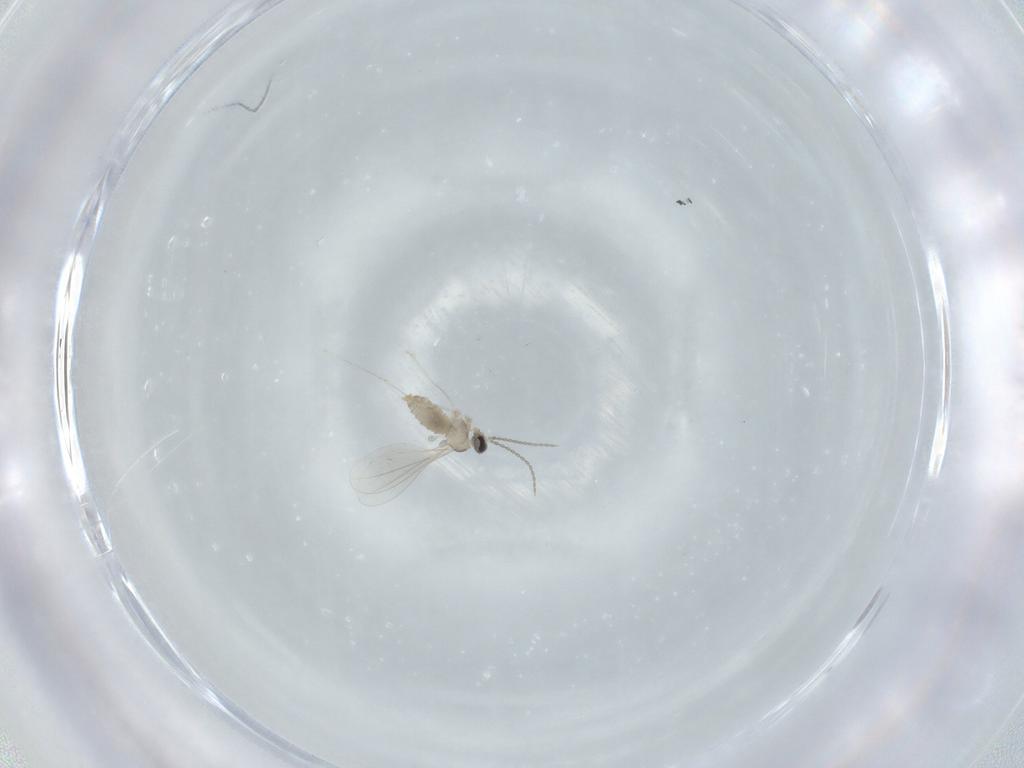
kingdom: Animalia
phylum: Arthropoda
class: Insecta
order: Diptera
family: Limoniidae
